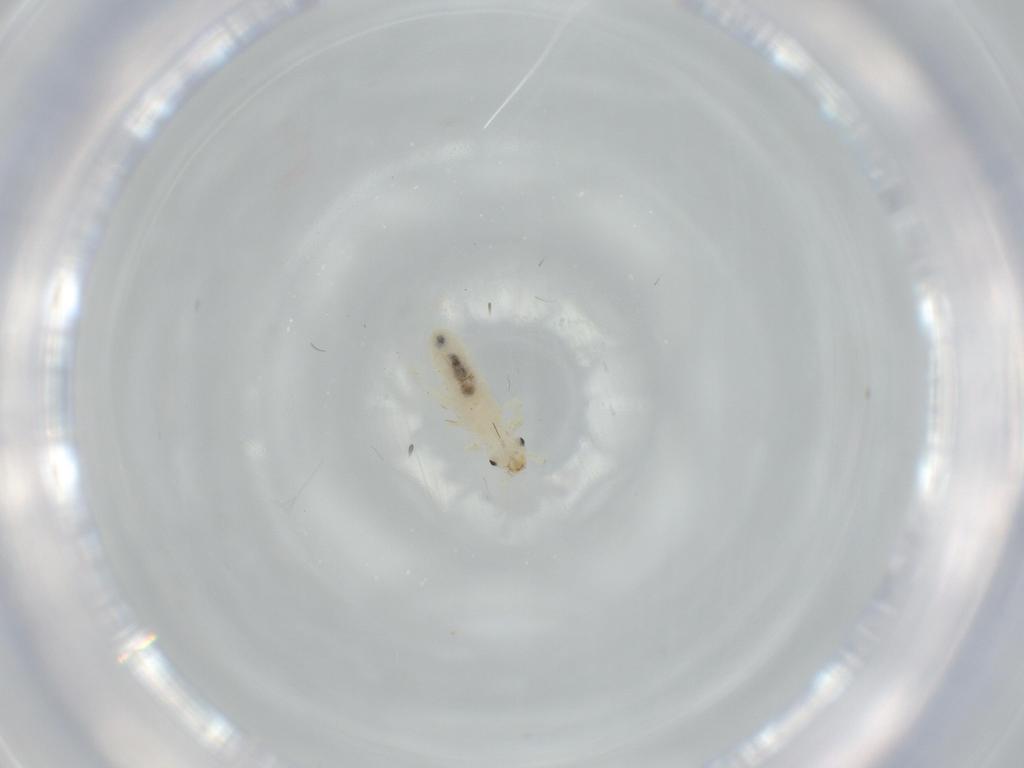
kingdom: Animalia
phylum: Arthropoda
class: Insecta
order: Psocodea
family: Liposcelididae
